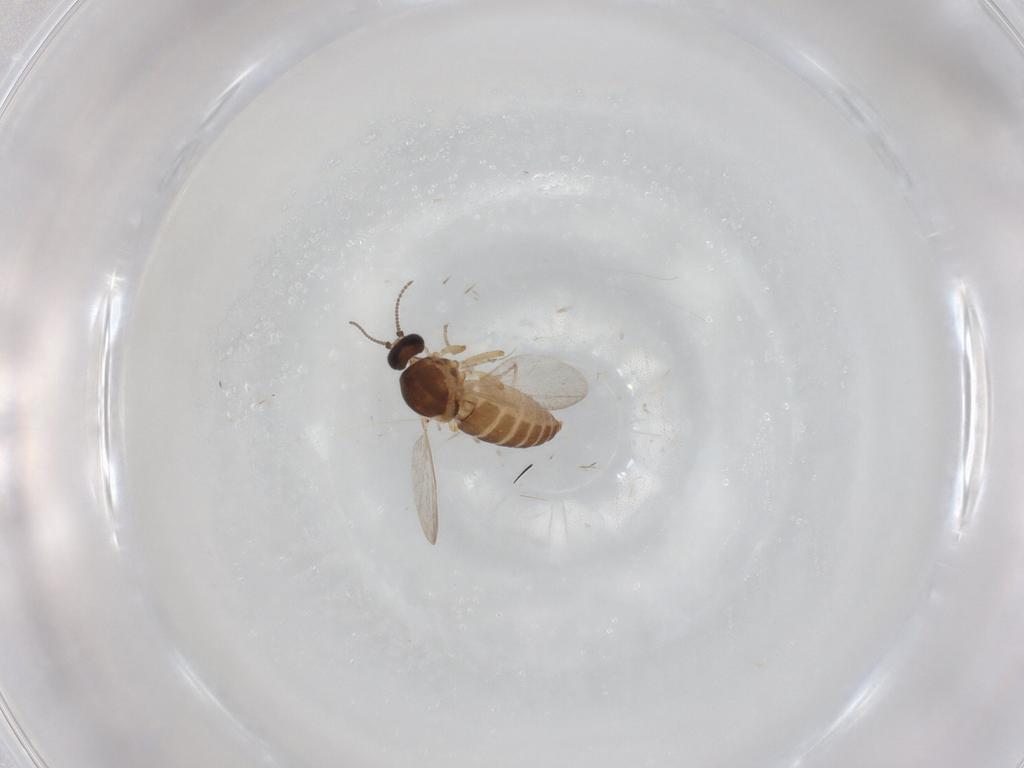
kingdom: Animalia
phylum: Arthropoda
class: Insecta
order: Diptera
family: Ceratopogonidae
